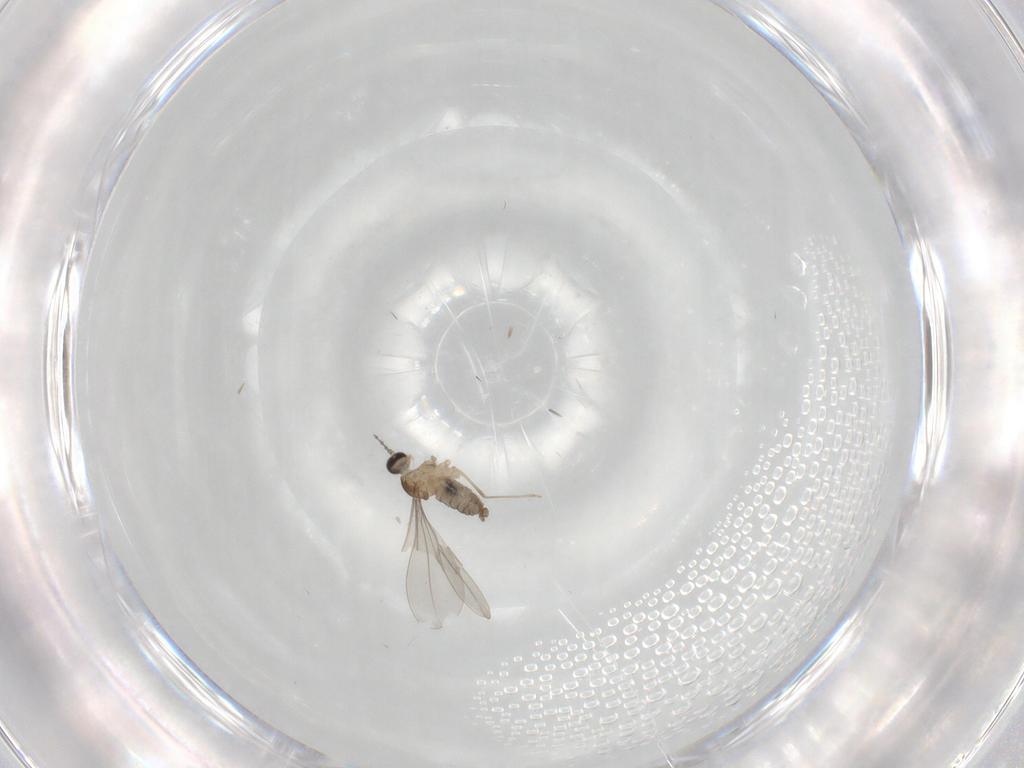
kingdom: Animalia
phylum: Arthropoda
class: Insecta
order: Diptera
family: Cecidomyiidae
